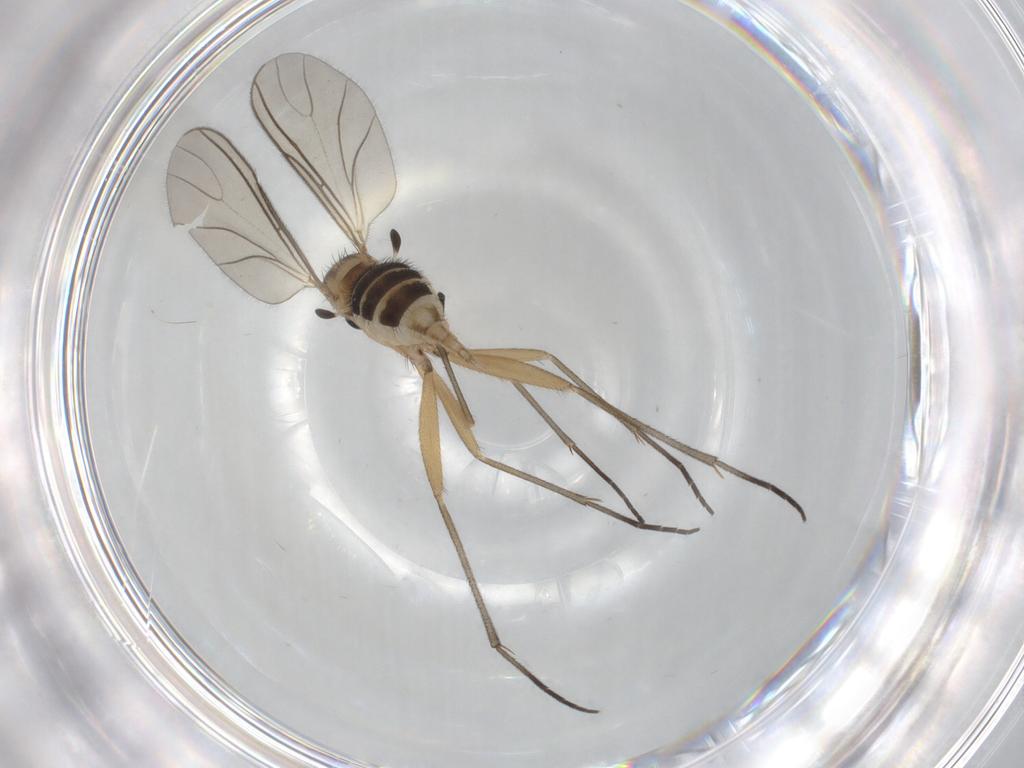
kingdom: Animalia
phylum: Arthropoda
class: Insecta
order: Diptera
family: Sciaridae
